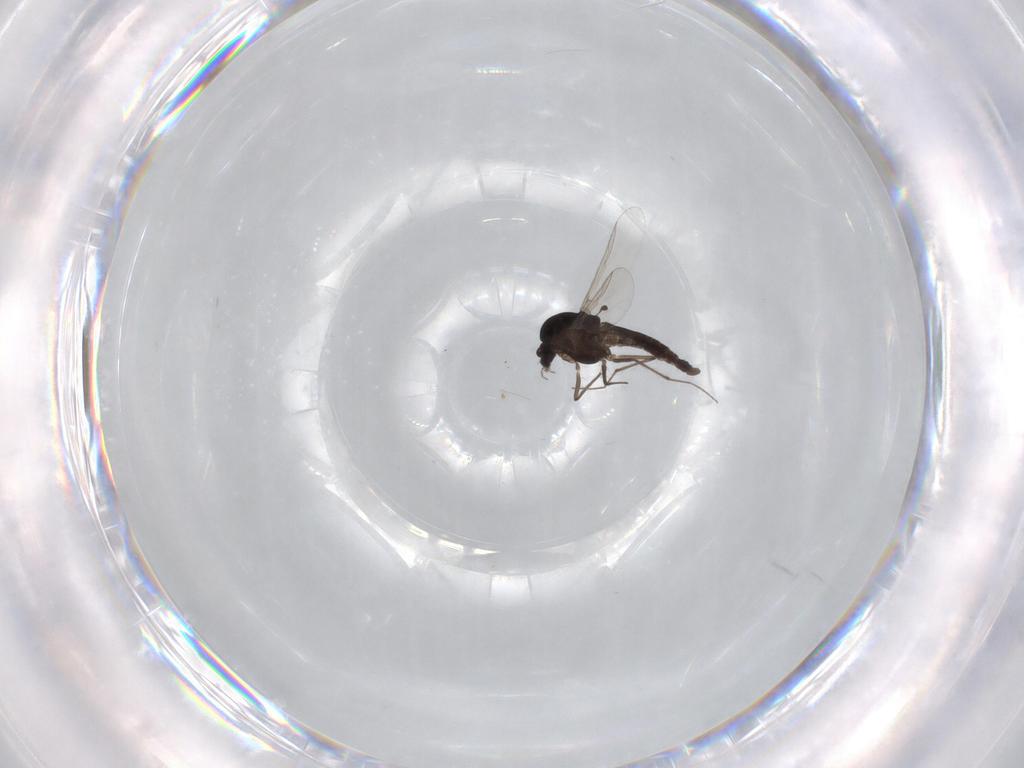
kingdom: Animalia
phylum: Arthropoda
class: Insecta
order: Diptera
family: Chironomidae
